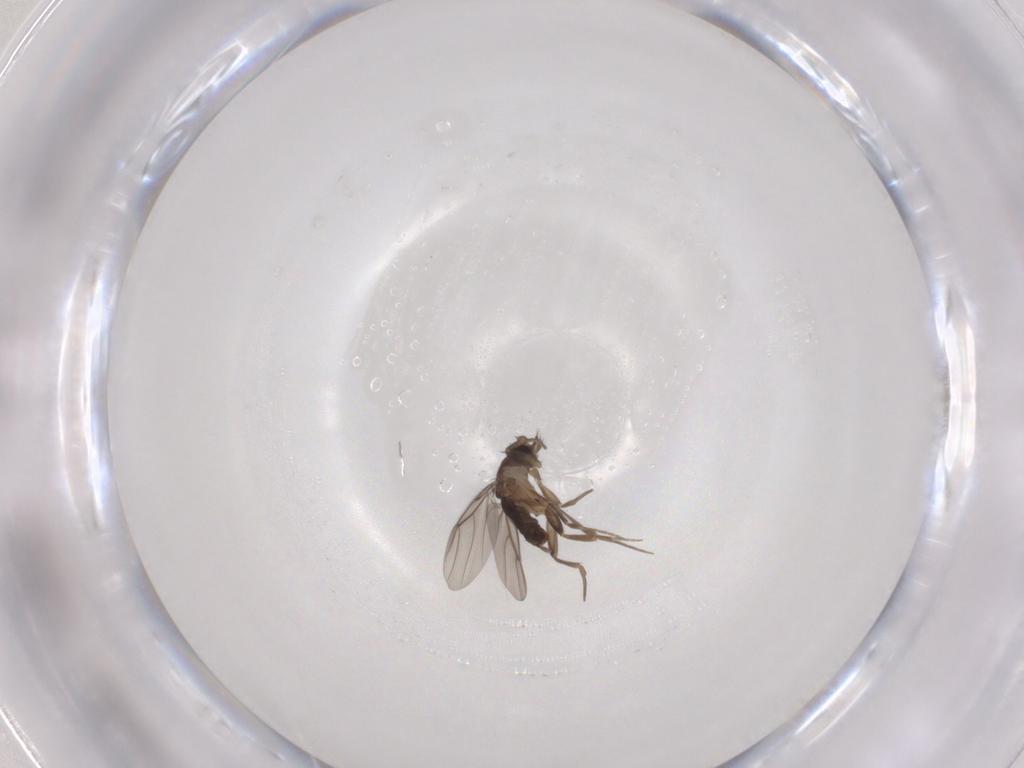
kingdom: Animalia
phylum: Arthropoda
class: Insecta
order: Diptera
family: Phoridae
